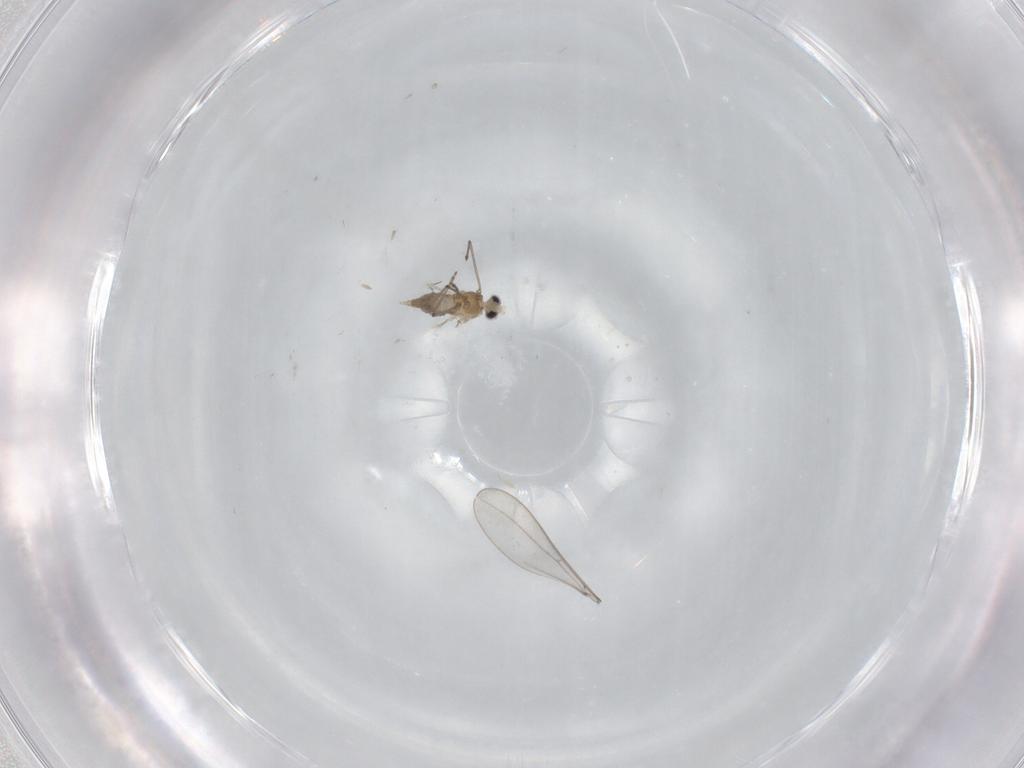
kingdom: Animalia
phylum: Arthropoda
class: Insecta
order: Diptera
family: Cecidomyiidae
